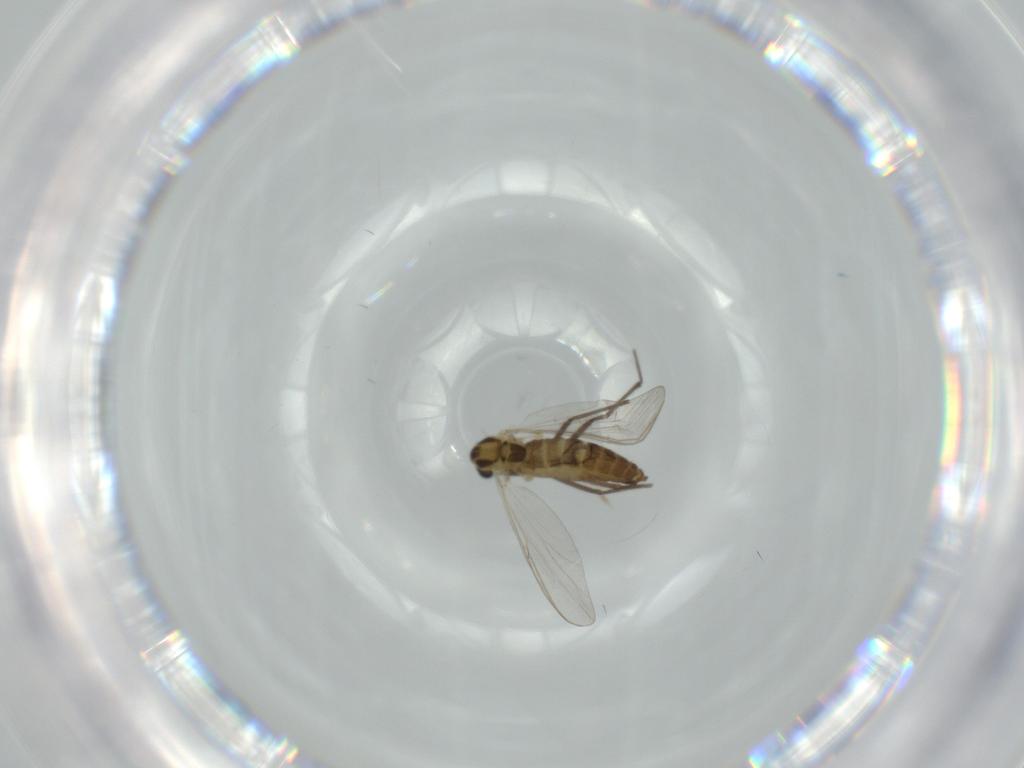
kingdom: Animalia
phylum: Arthropoda
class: Insecta
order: Diptera
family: Chironomidae
